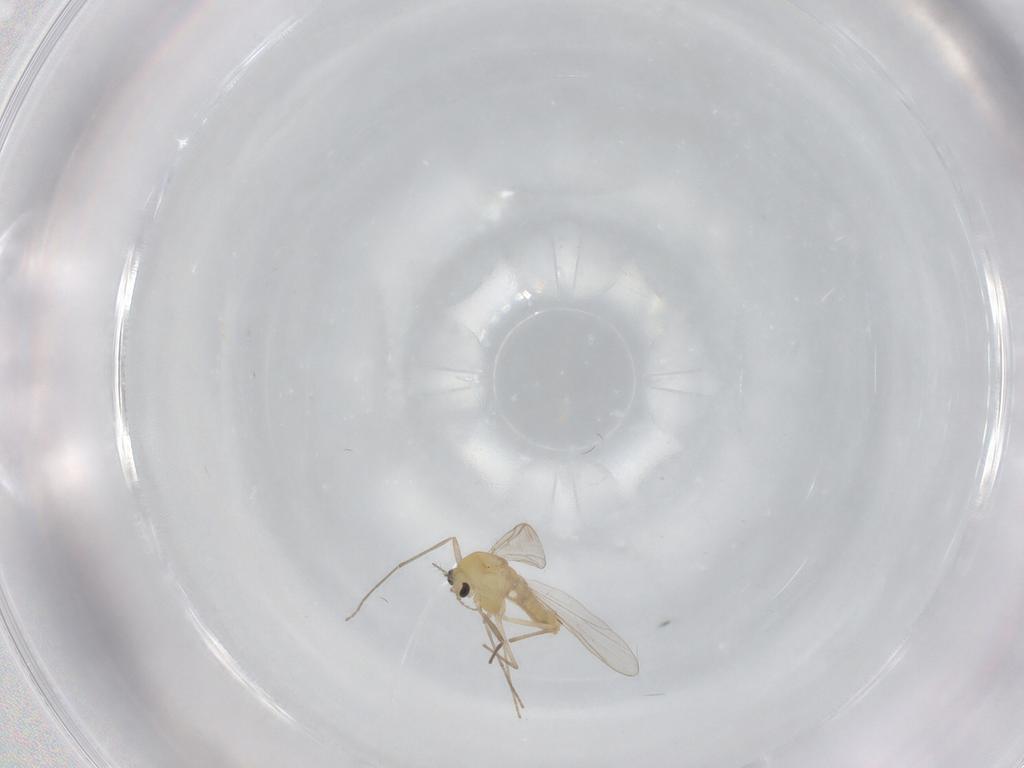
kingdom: Animalia
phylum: Arthropoda
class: Insecta
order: Diptera
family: Chironomidae
